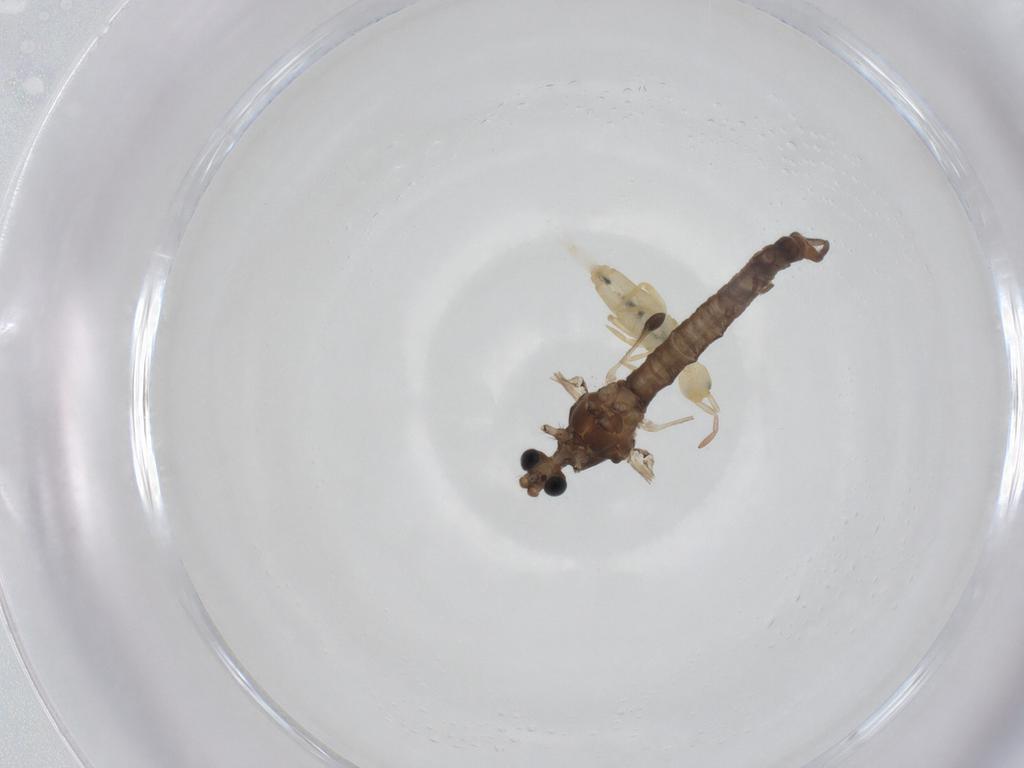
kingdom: Animalia
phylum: Arthropoda
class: Insecta
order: Diptera
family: Trichoceridae
